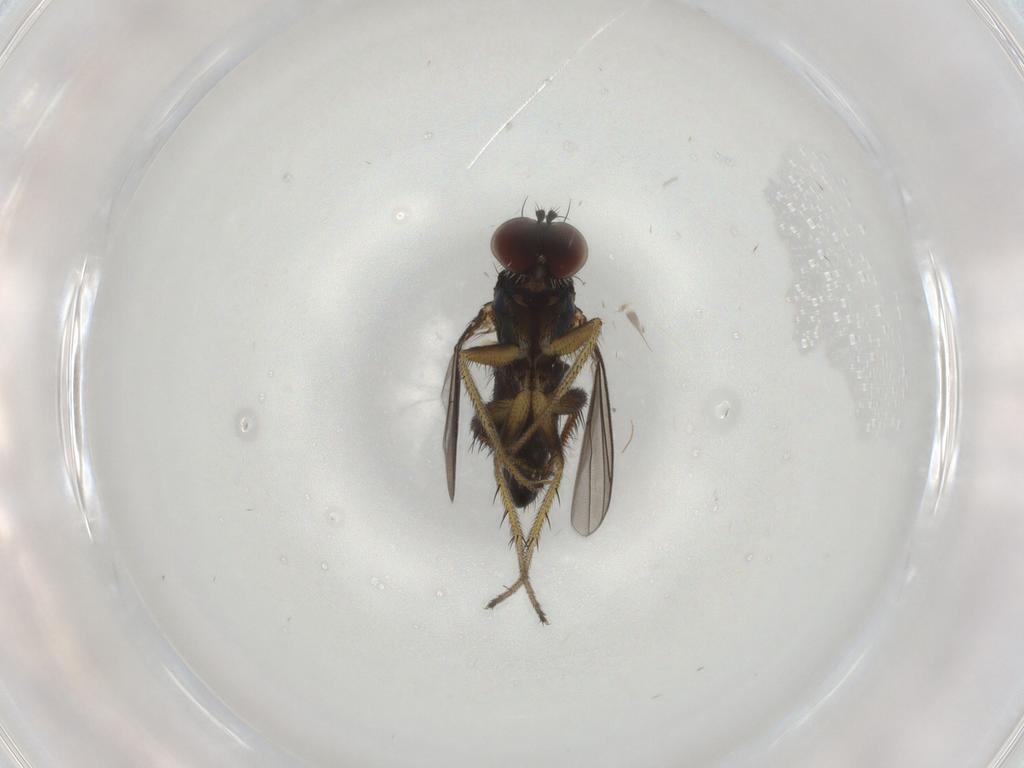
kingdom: Animalia
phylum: Arthropoda
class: Insecta
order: Diptera
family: Dolichopodidae
